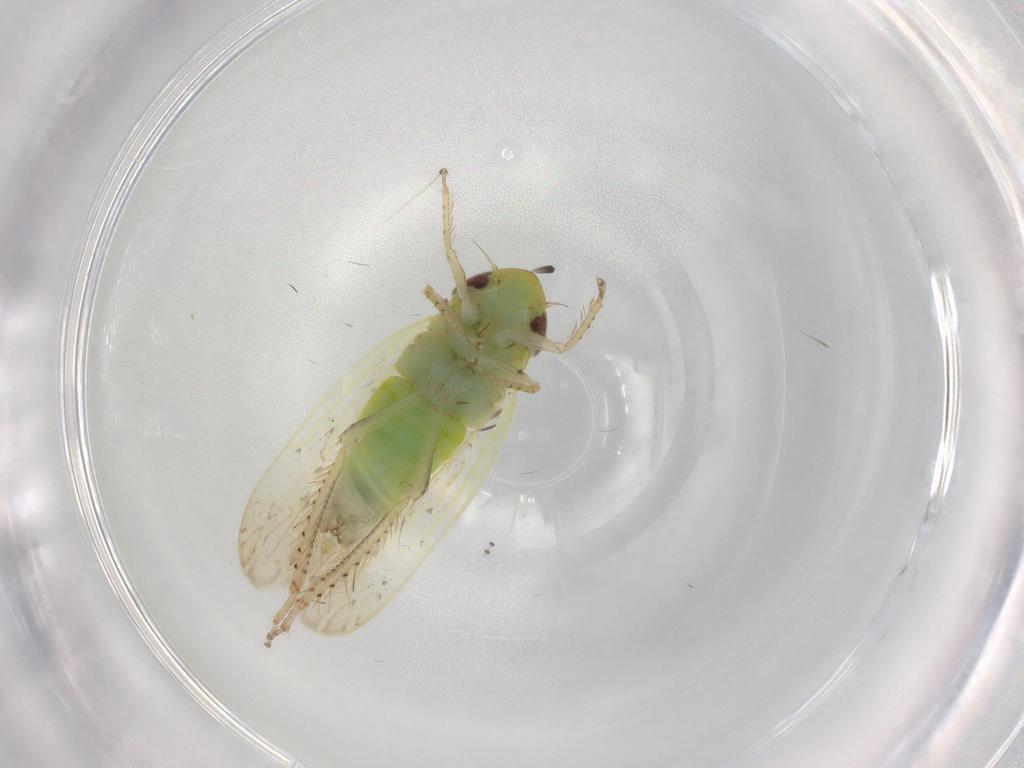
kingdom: Animalia
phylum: Arthropoda
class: Insecta
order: Hemiptera
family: Cicadellidae
